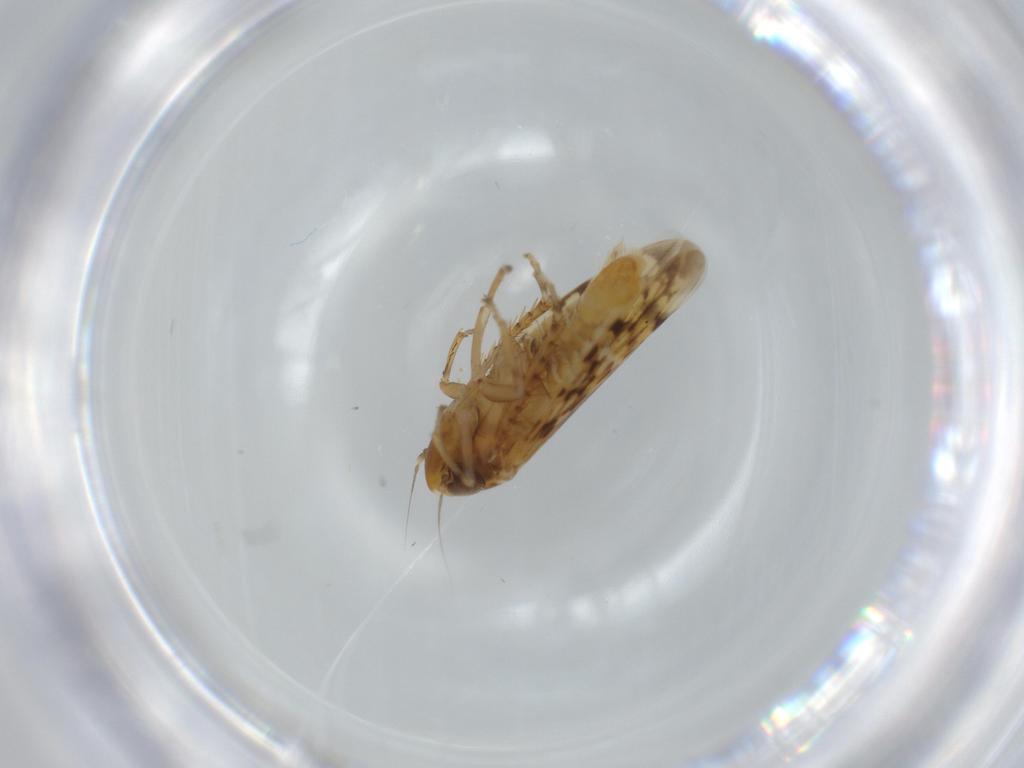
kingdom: Animalia
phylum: Arthropoda
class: Insecta
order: Hemiptera
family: Cicadellidae
